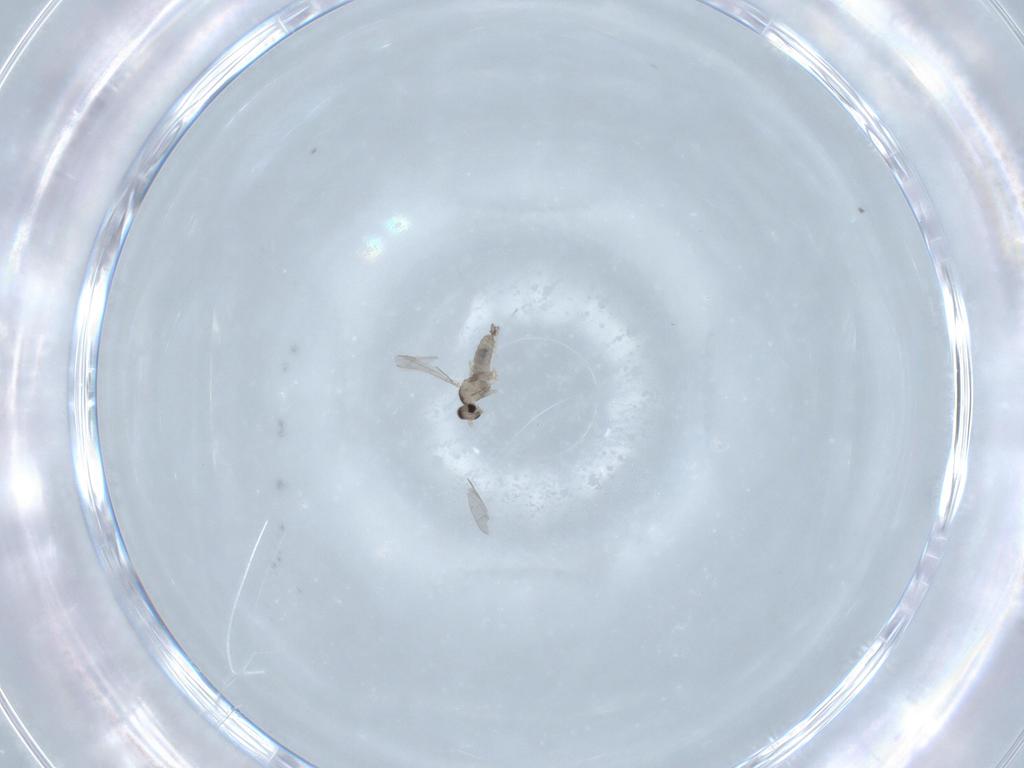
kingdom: Animalia
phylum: Arthropoda
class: Insecta
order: Diptera
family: Cecidomyiidae
